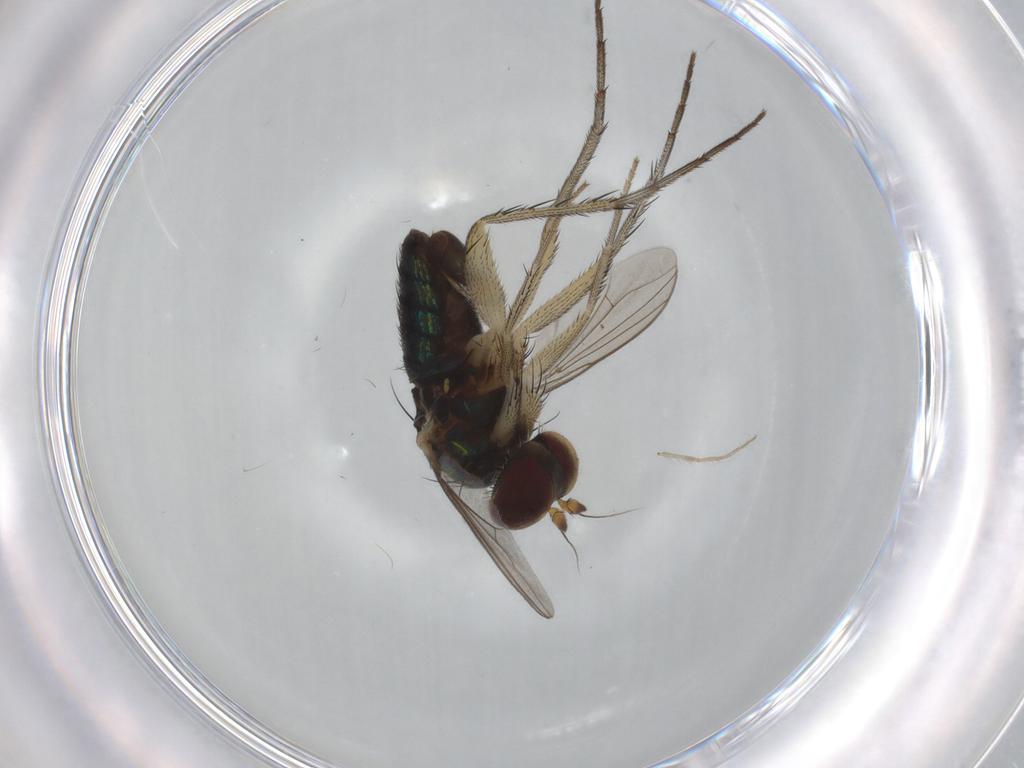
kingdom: Animalia
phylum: Arthropoda
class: Insecta
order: Diptera
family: Dolichopodidae
